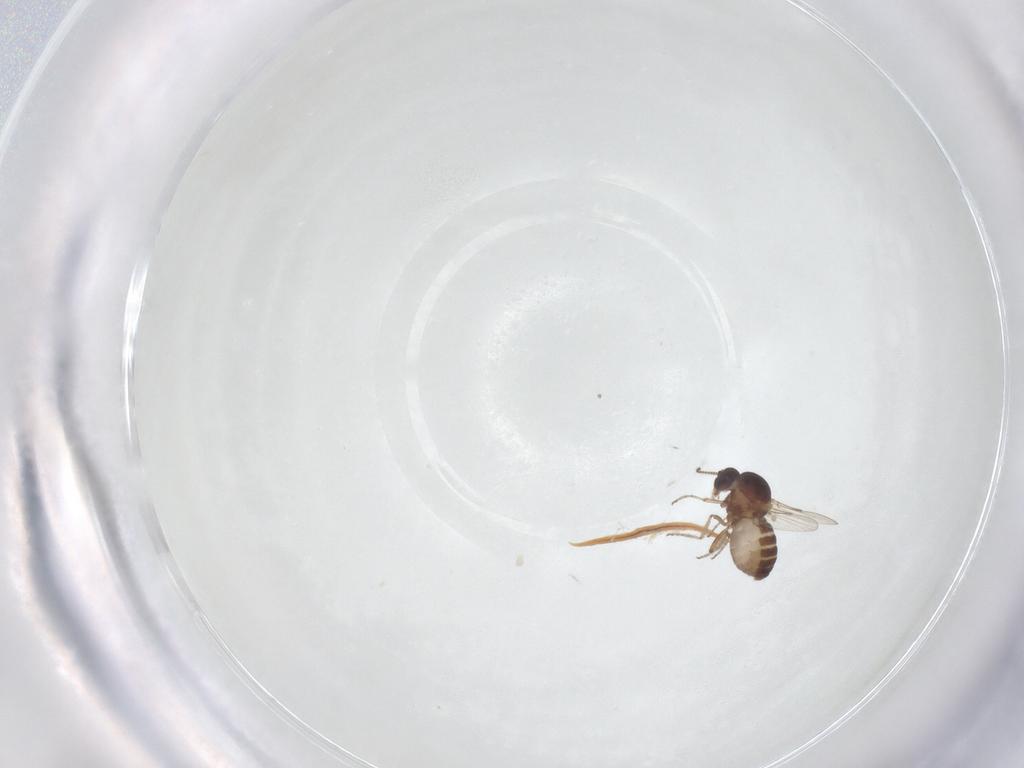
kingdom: Animalia
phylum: Arthropoda
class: Insecta
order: Diptera
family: Ceratopogonidae
